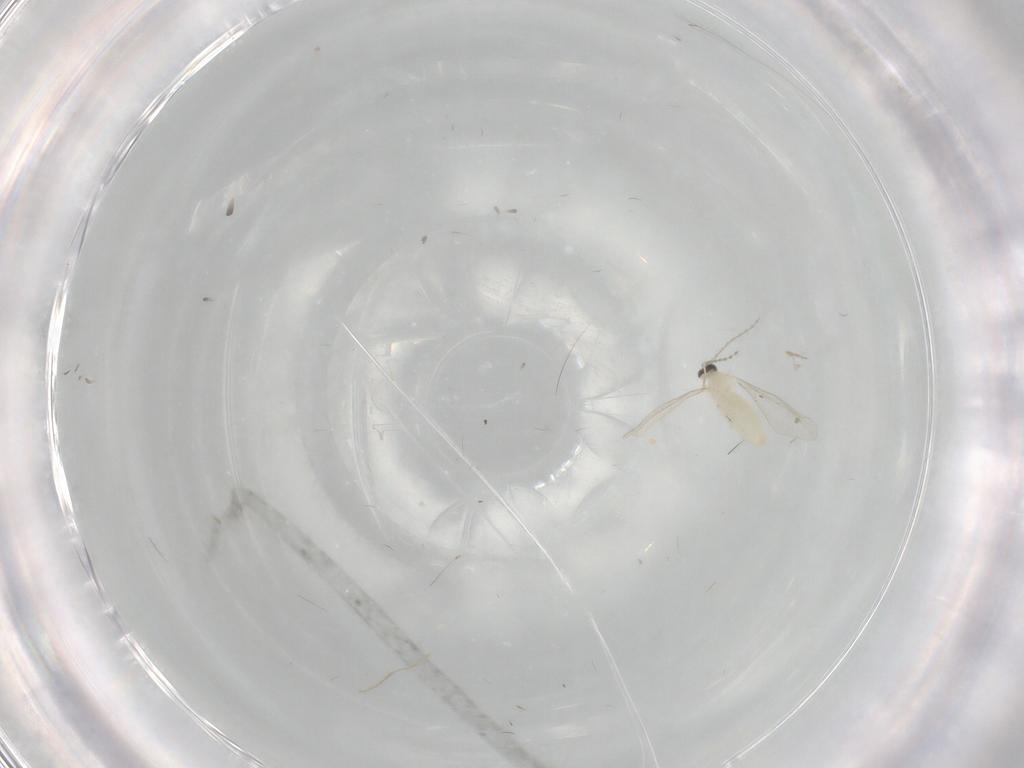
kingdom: Animalia
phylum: Arthropoda
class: Insecta
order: Diptera
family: Cecidomyiidae
